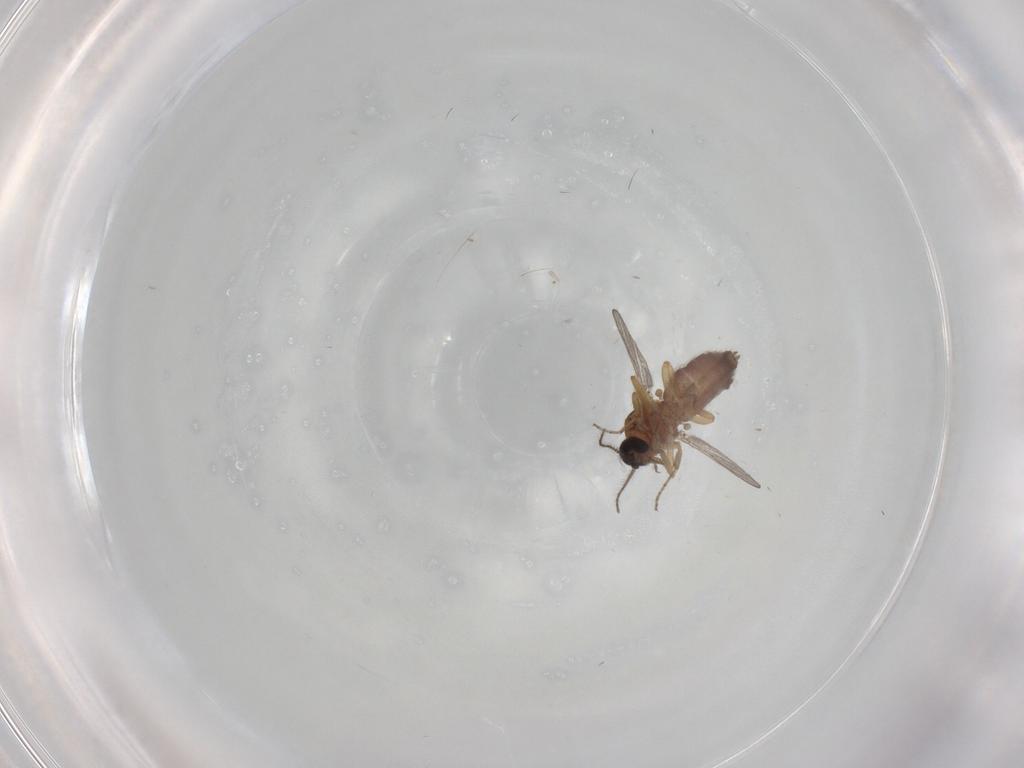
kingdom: Animalia
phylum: Arthropoda
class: Insecta
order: Diptera
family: Ceratopogonidae
